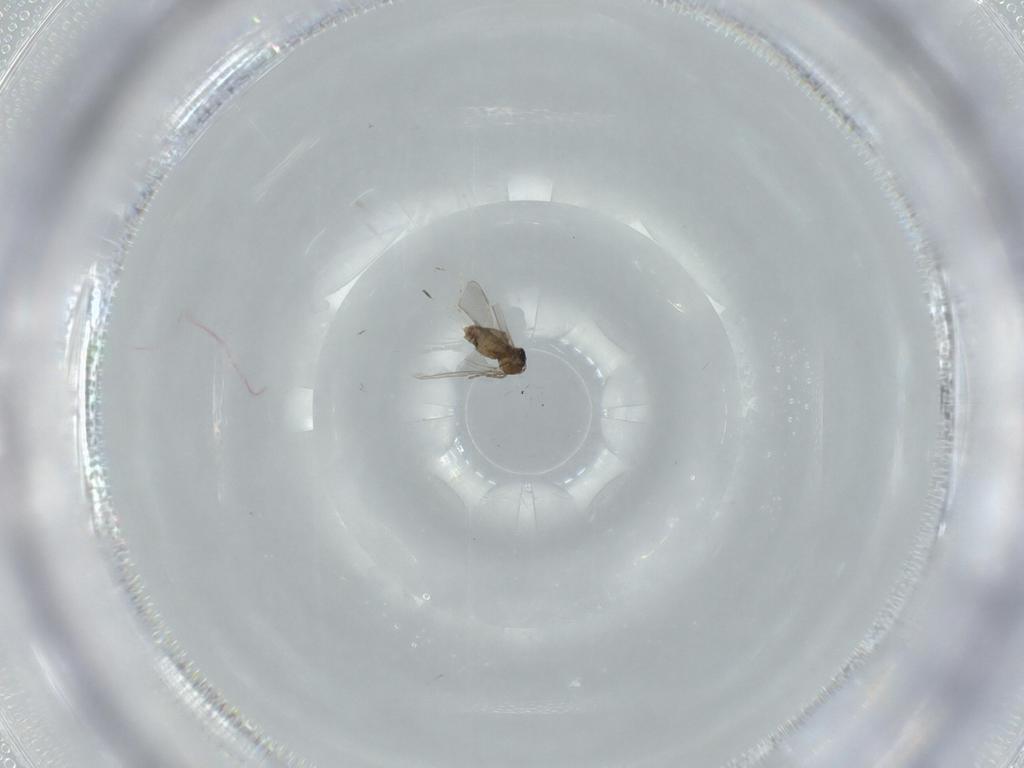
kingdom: Animalia
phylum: Arthropoda
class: Insecta
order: Diptera
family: Cecidomyiidae
